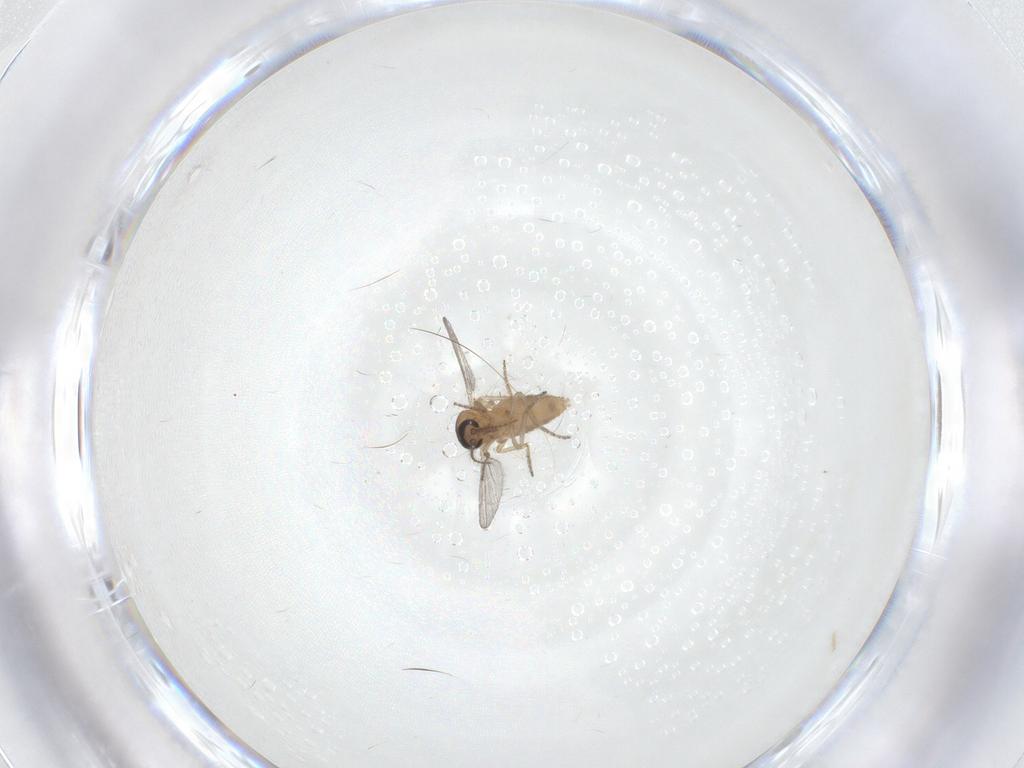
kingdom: Animalia
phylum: Arthropoda
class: Insecta
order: Diptera
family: Ceratopogonidae
